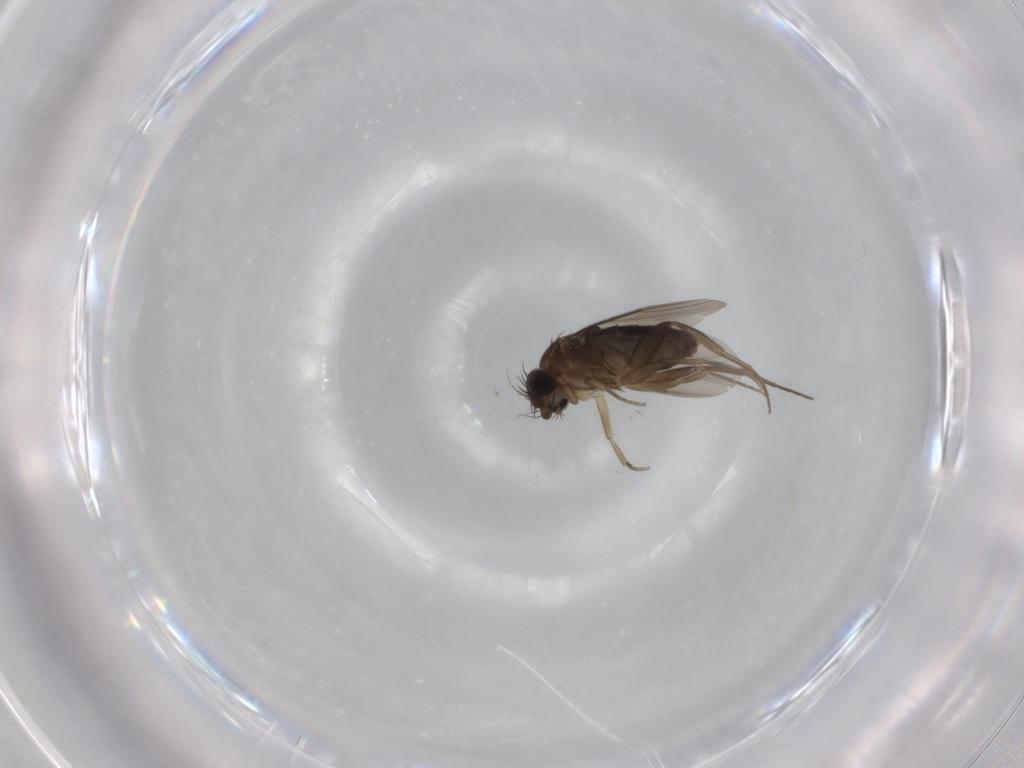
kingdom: Animalia
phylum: Arthropoda
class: Insecta
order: Diptera
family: Phoridae
